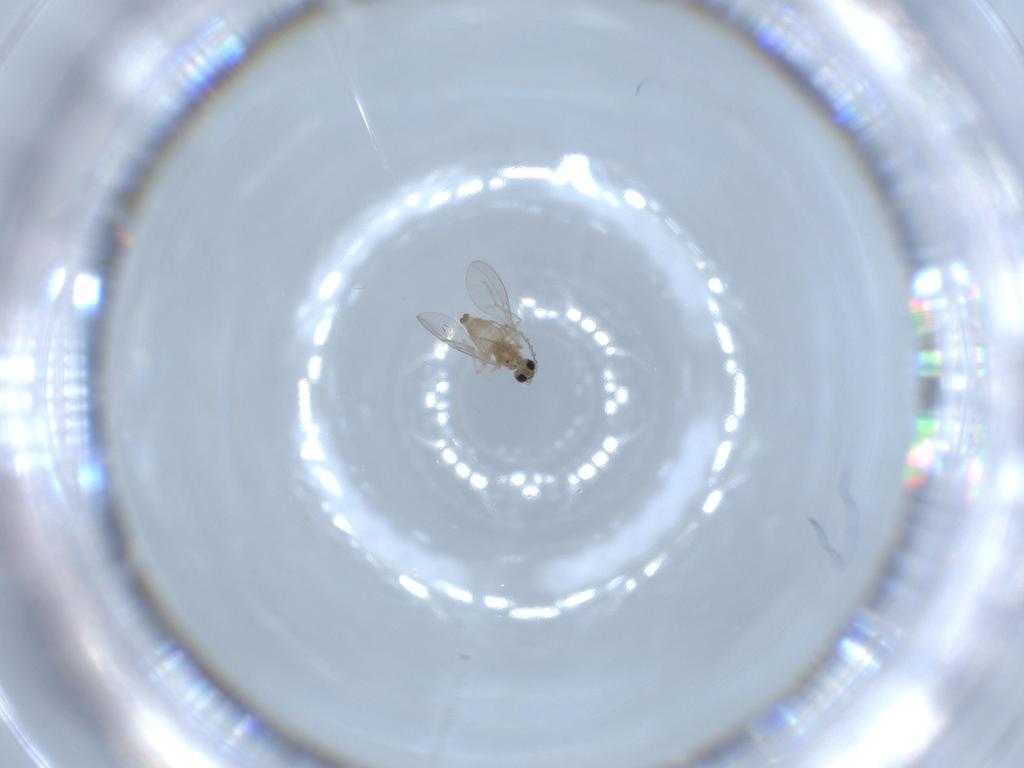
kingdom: Animalia
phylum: Arthropoda
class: Insecta
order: Diptera
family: Cecidomyiidae
